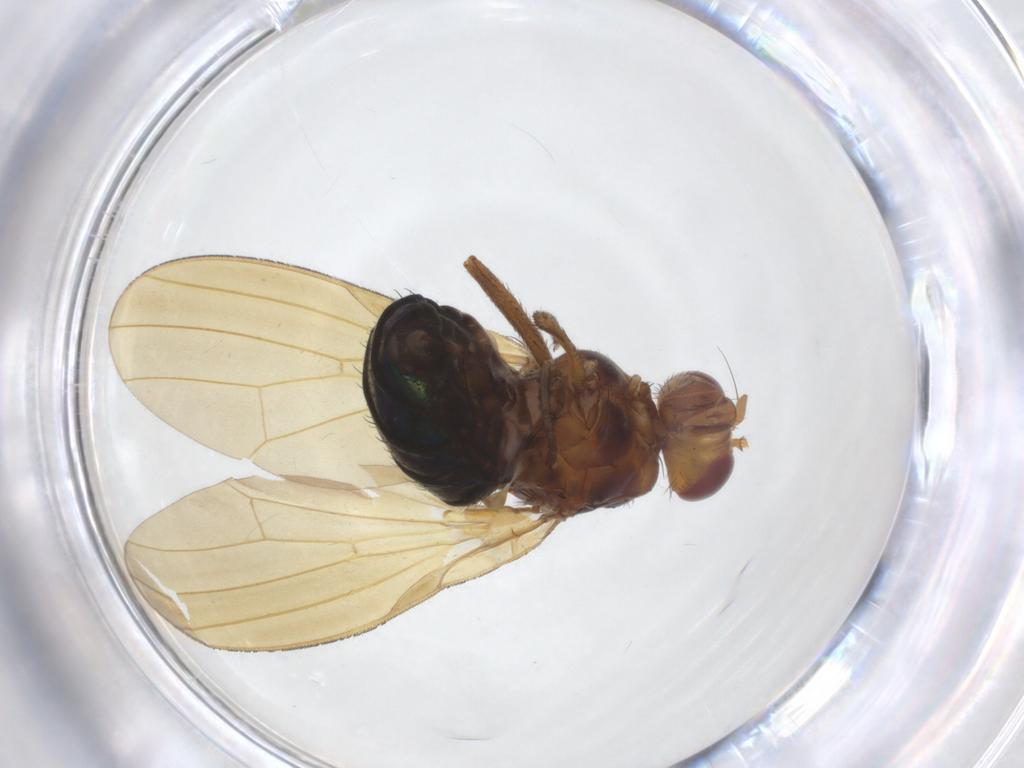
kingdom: Animalia
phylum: Arthropoda
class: Insecta
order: Diptera
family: Lauxaniidae
